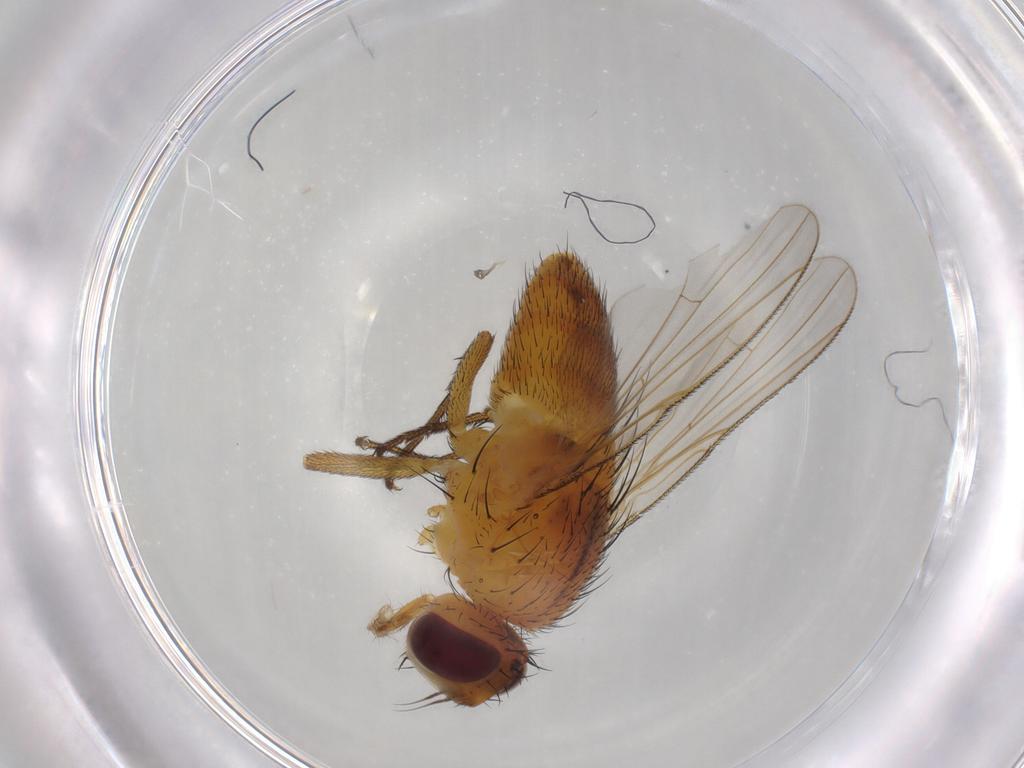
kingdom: Animalia
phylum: Arthropoda
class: Insecta
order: Diptera
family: Muscidae
